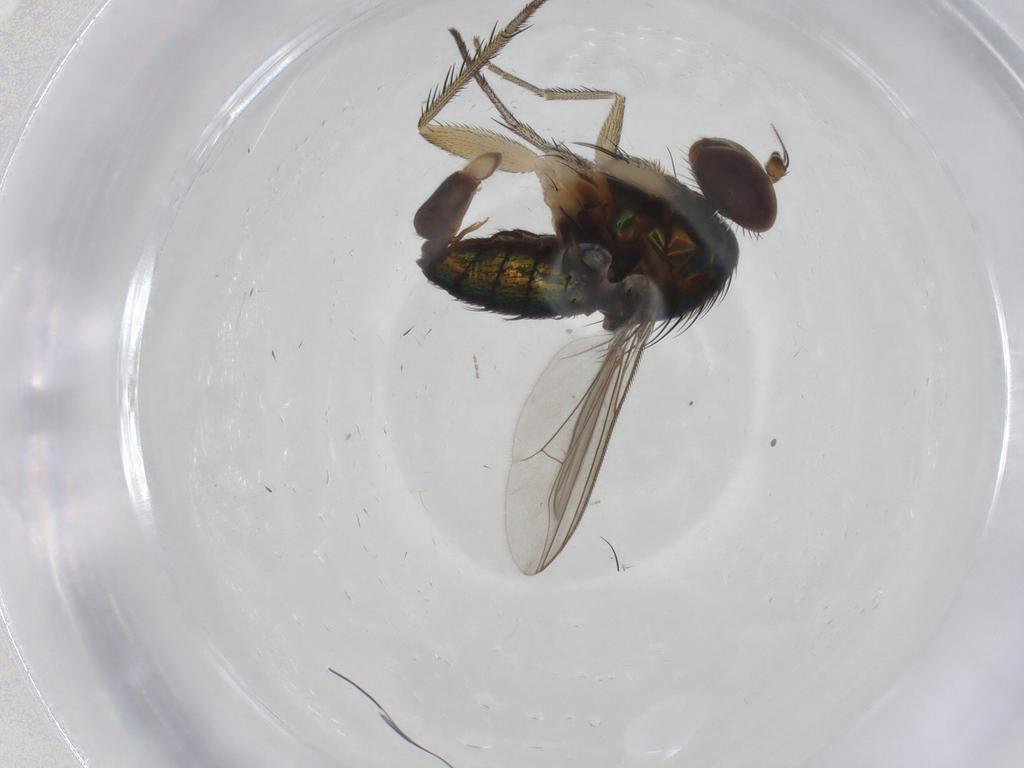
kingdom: Animalia
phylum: Arthropoda
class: Insecta
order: Diptera
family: Dolichopodidae
